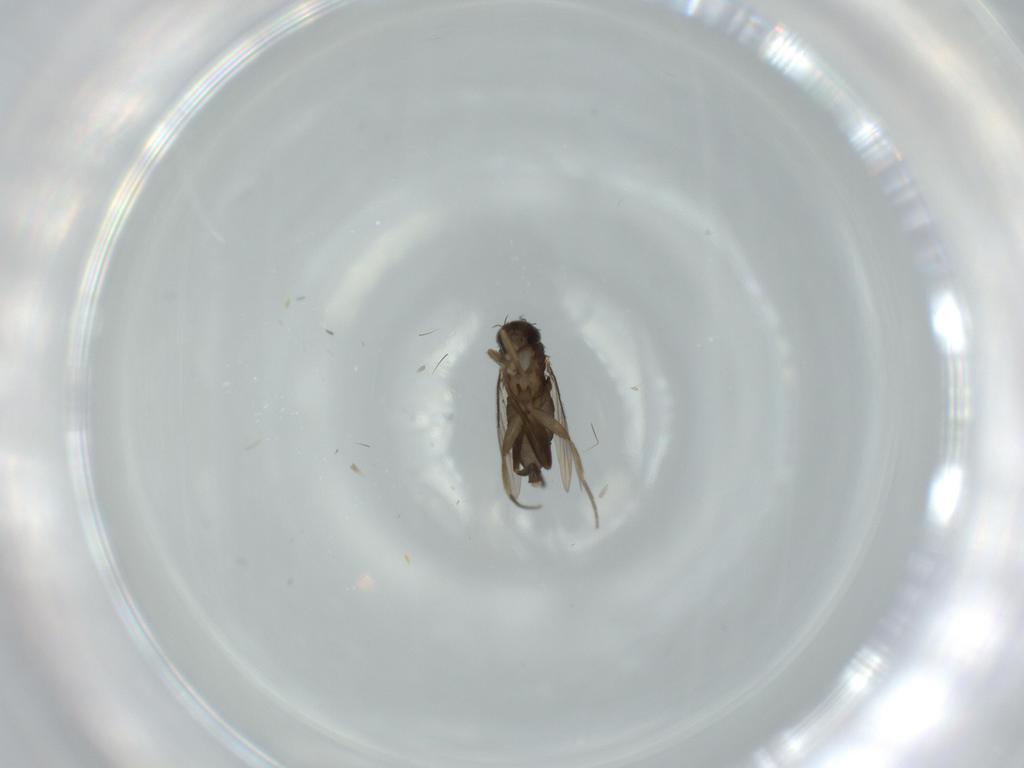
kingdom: Animalia
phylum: Arthropoda
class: Insecta
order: Diptera
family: Phoridae
